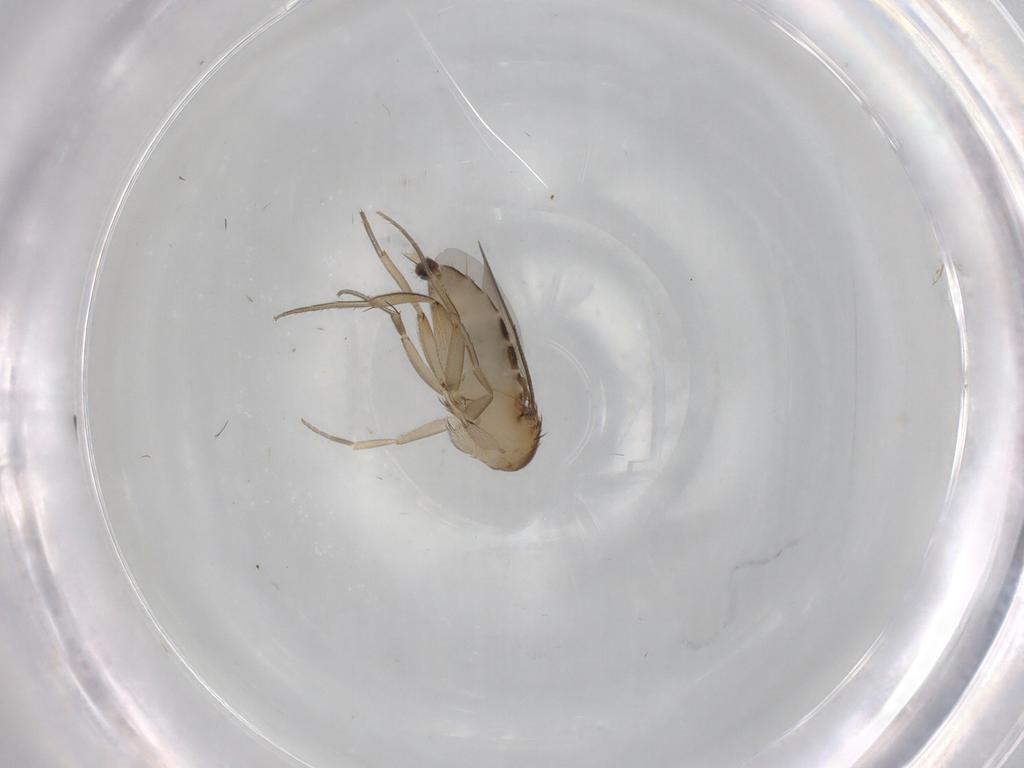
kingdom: Animalia
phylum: Arthropoda
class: Insecta
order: Diptera
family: Phoridae
